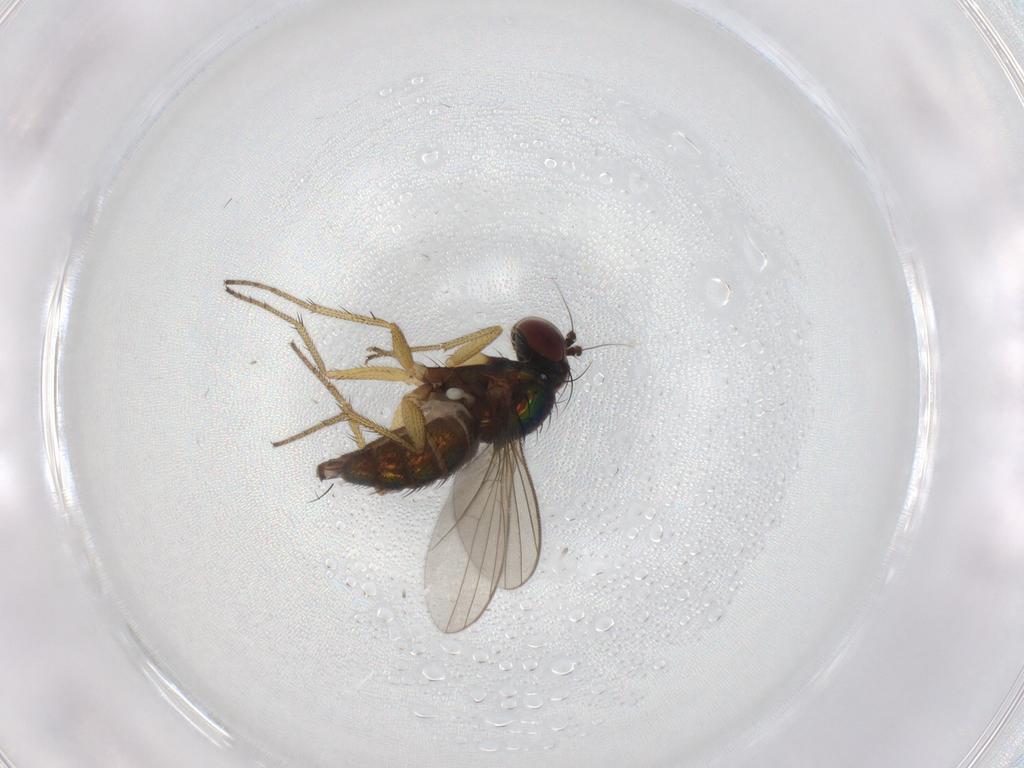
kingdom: Animalia
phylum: Arthropoda
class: Insecta
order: Diptera
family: Dolichopodidae
